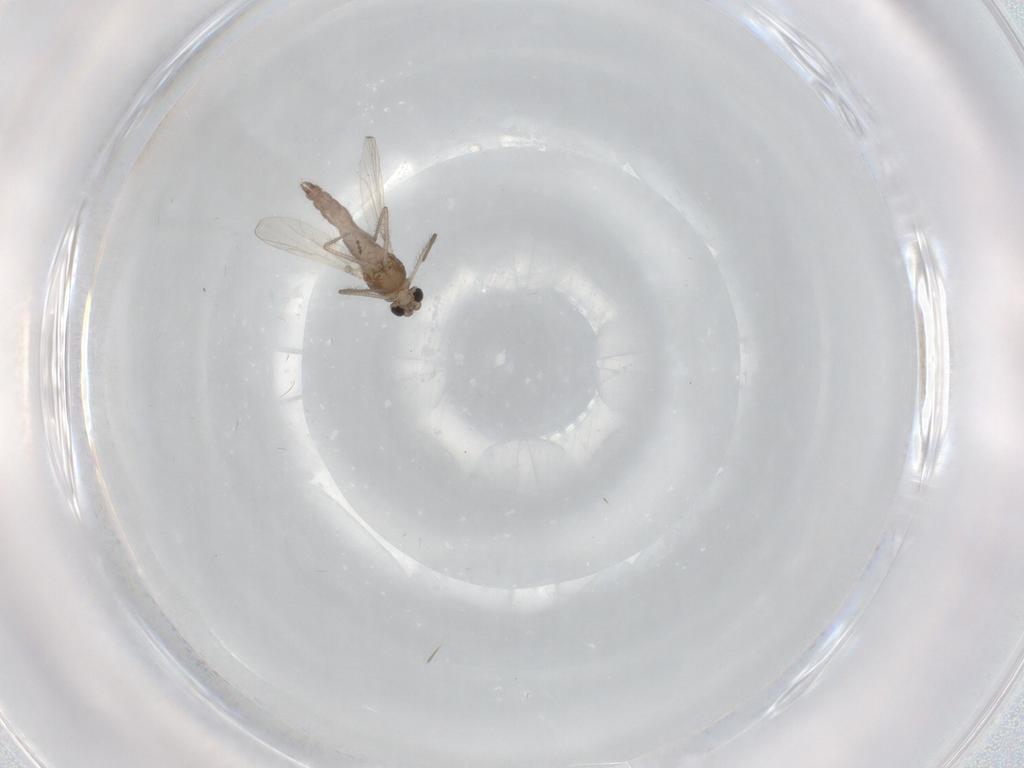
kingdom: Animalia
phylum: Arthropoda
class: Insecta
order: Diptera
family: Chironomidae
